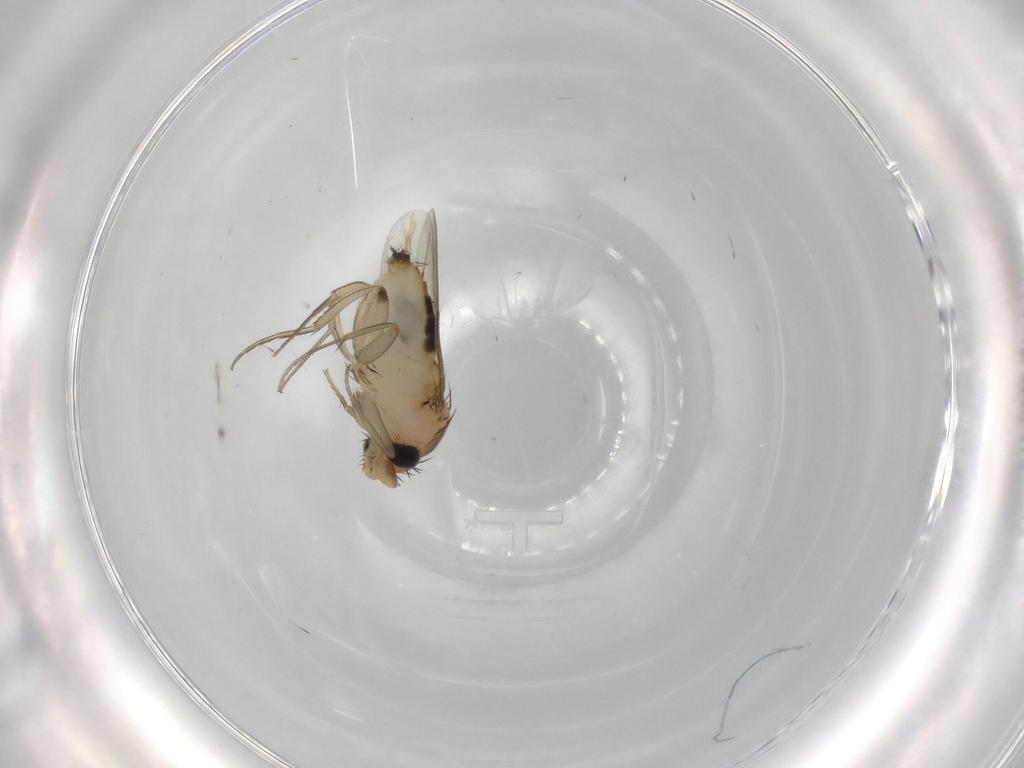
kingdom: Animalia
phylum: Arthropoda
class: Insecta
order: Diptera
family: Phoridae
